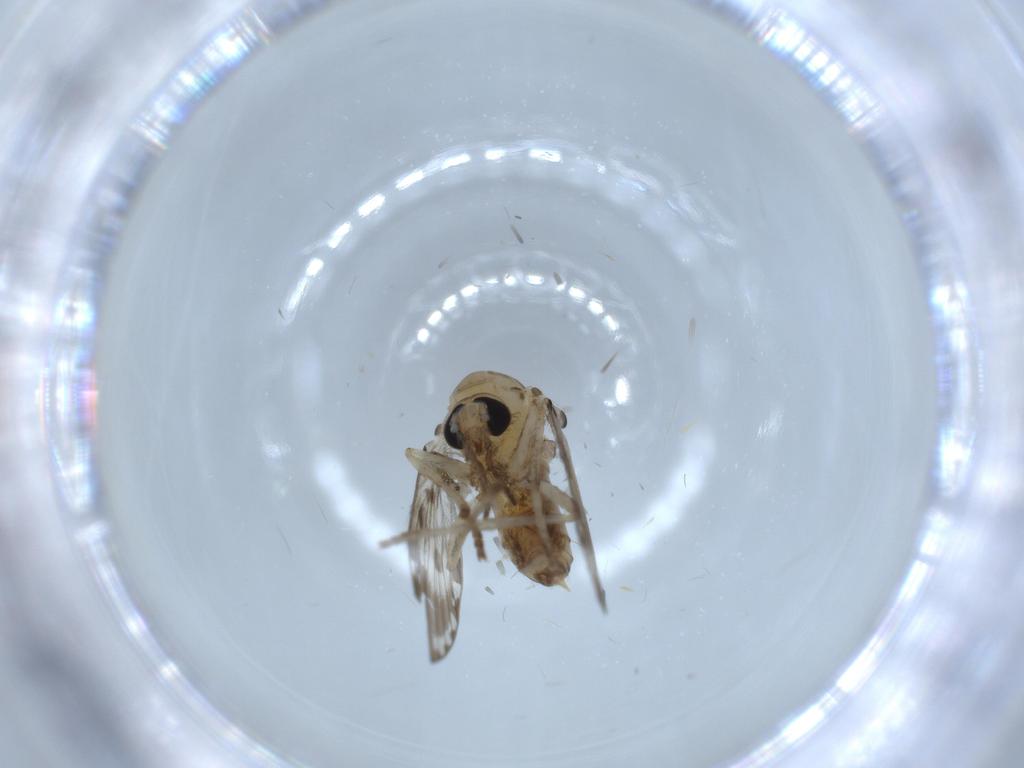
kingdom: Animalia
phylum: Arthropoda
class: Insecta
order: Diptera
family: Psychodidae
